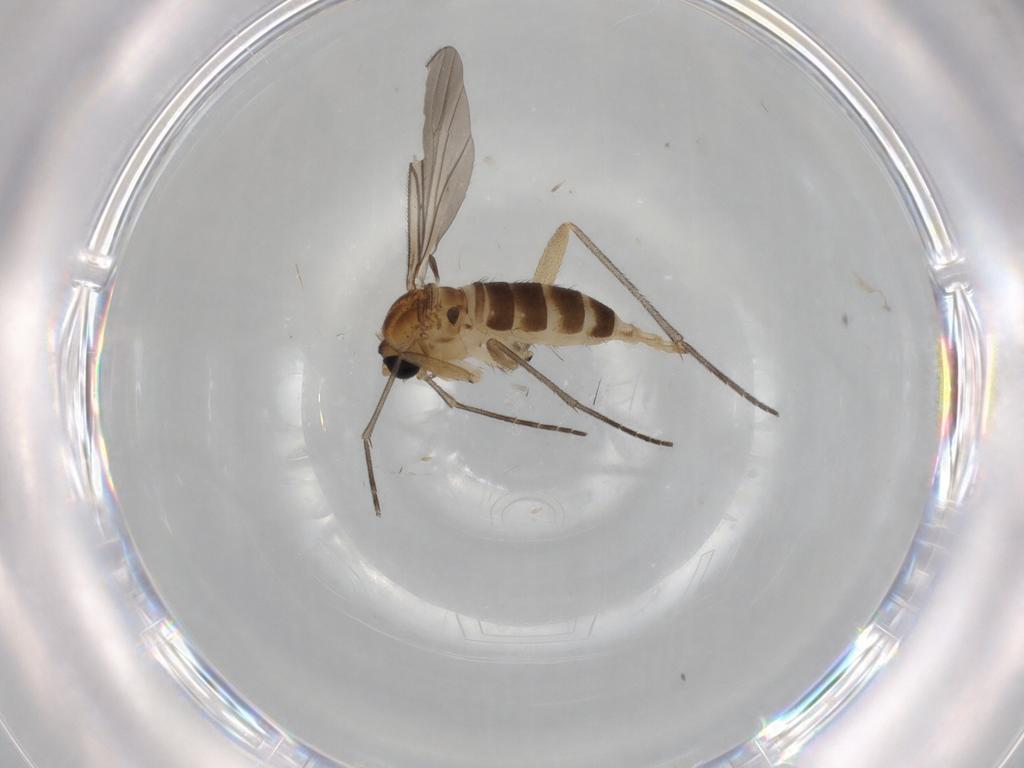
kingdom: Animalia
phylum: Arthropoda
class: Insecta
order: Diptera
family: Sciaridae
